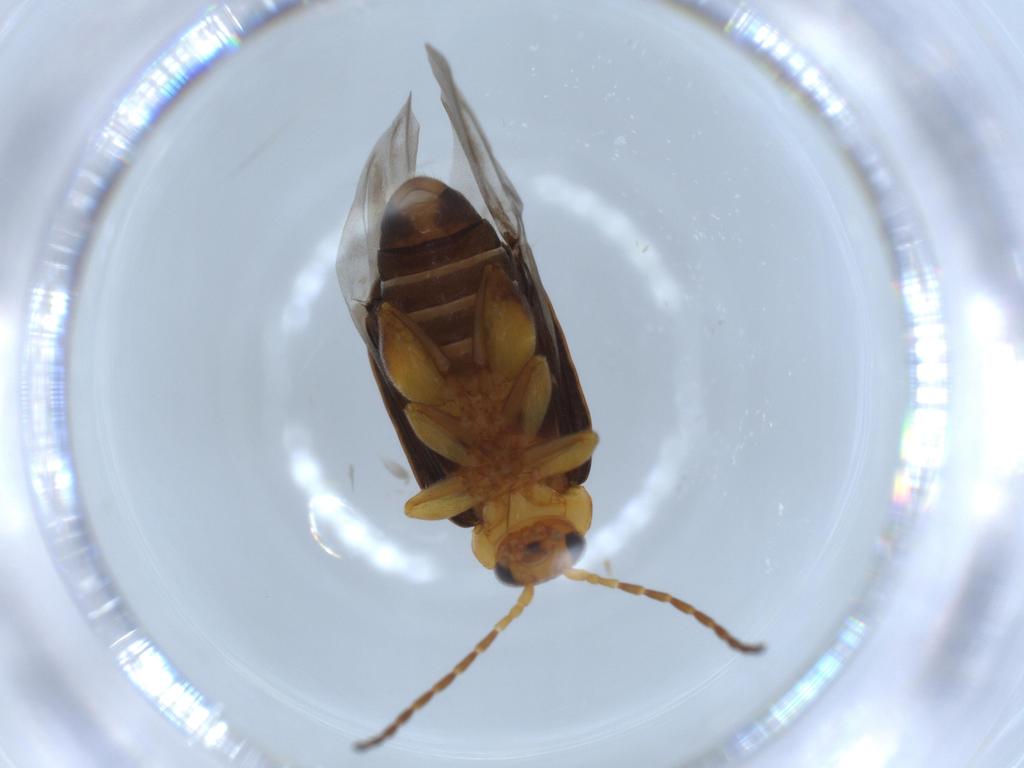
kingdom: Animalia
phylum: Arthropoda
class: Insecta
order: Coleoptera
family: Chrysomelidae
